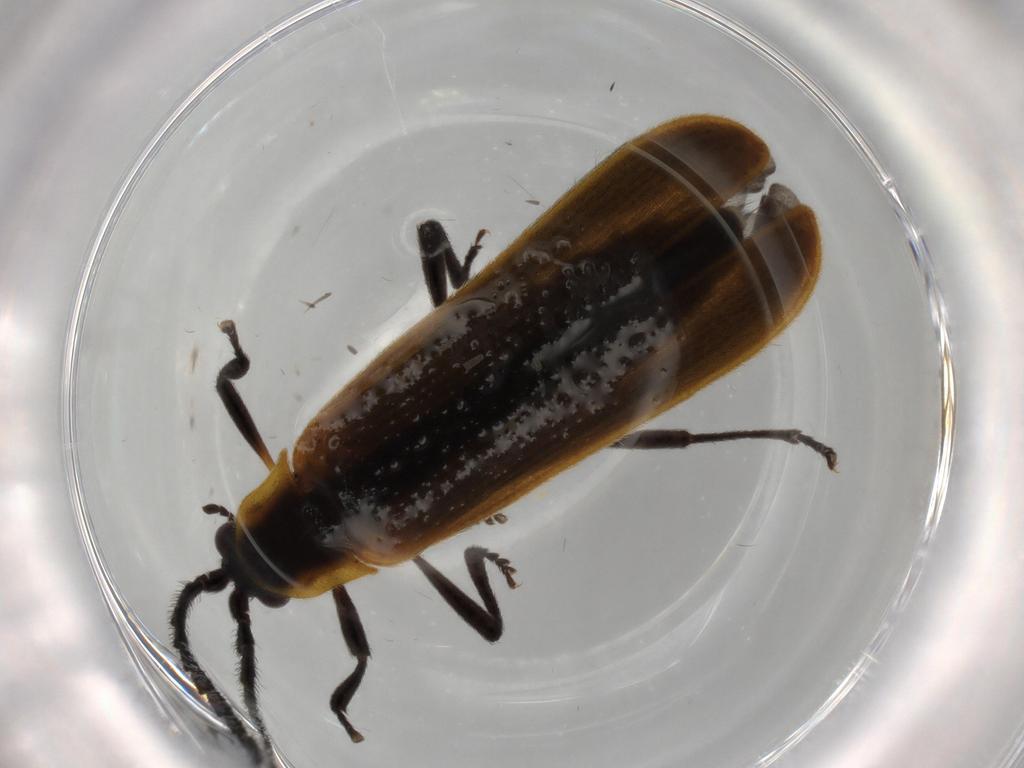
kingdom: Animalia
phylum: Arthropoda
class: Insecta
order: Coleoptera
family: Lycidae
